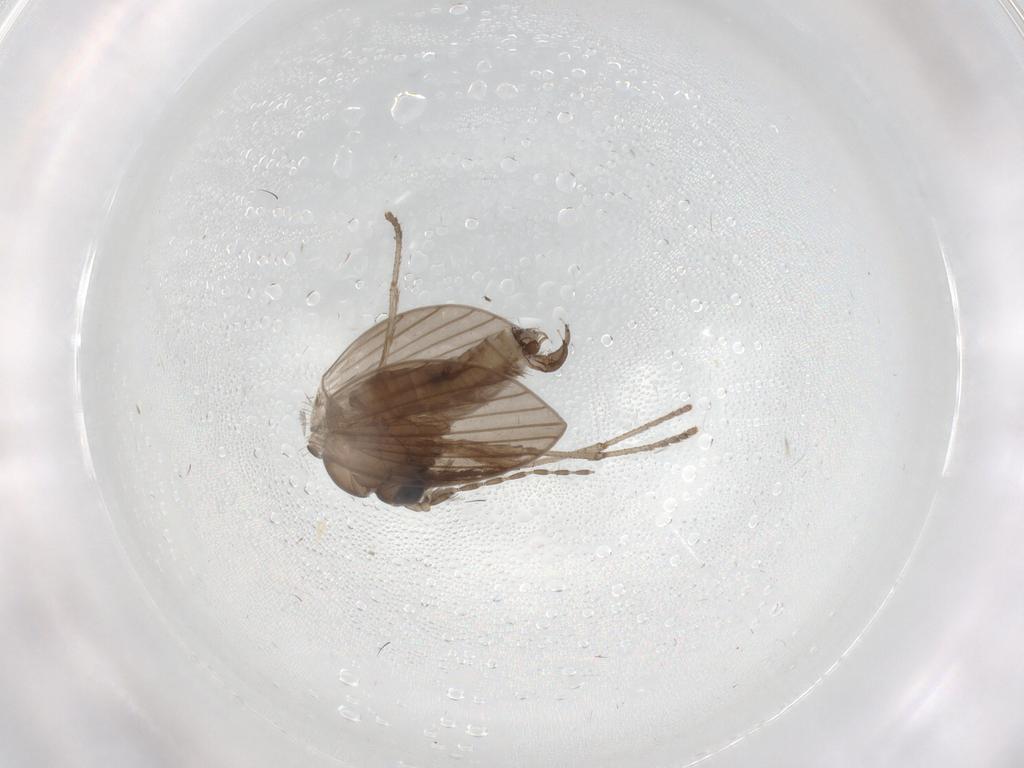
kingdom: Animalia
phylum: Arthropoda
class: Insecta
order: Diptera
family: Psychodidae
